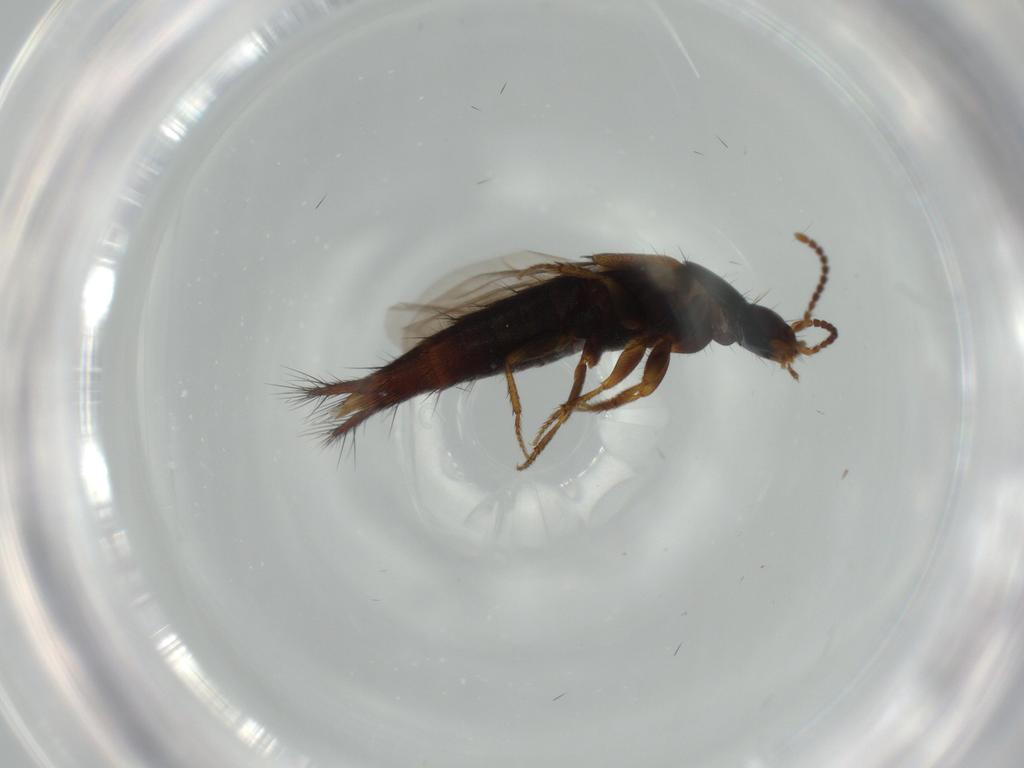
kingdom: Animalia
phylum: Arthropoda
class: Insecta
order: Coleoptera
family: Staphylinidae
